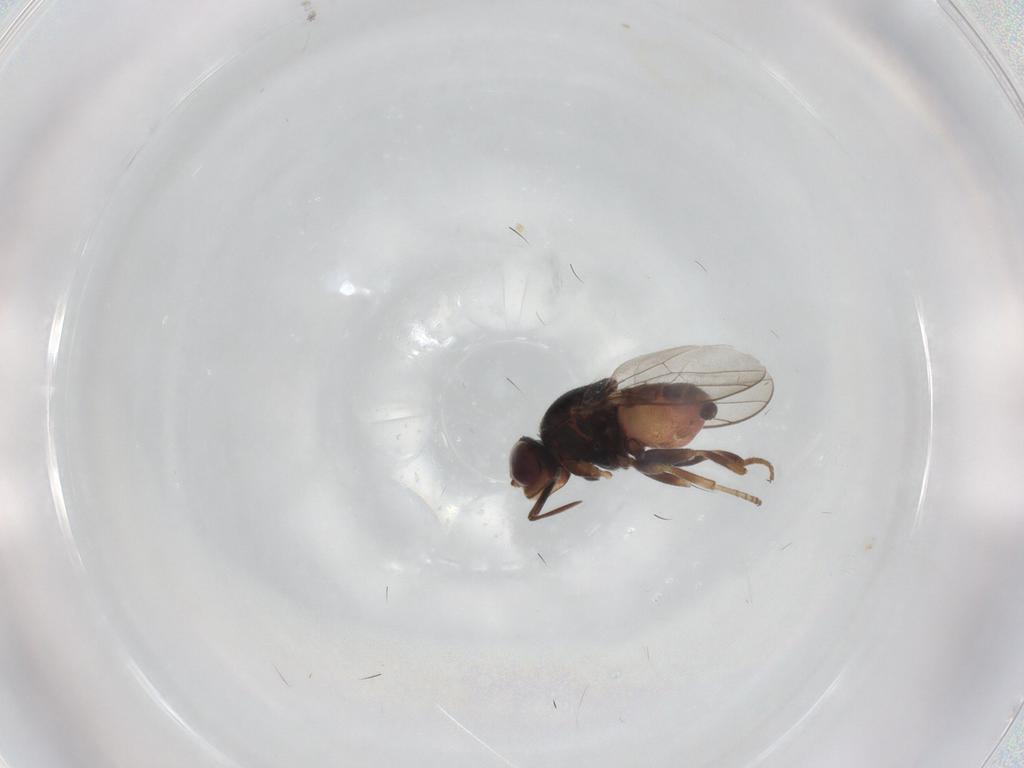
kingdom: Animalia
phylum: Arthropoda
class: Insecta
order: Diptera
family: Chloropidae
